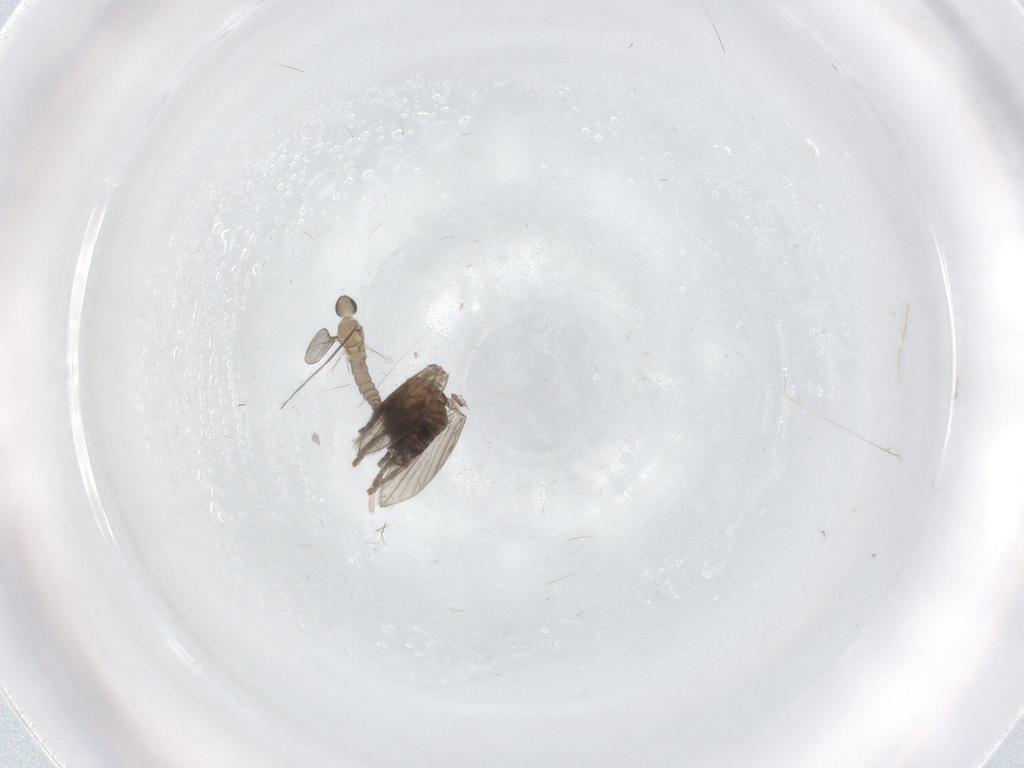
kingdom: Animalia
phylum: Arthropoda
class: Insecta
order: Diptera
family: Cecidomyiidae
